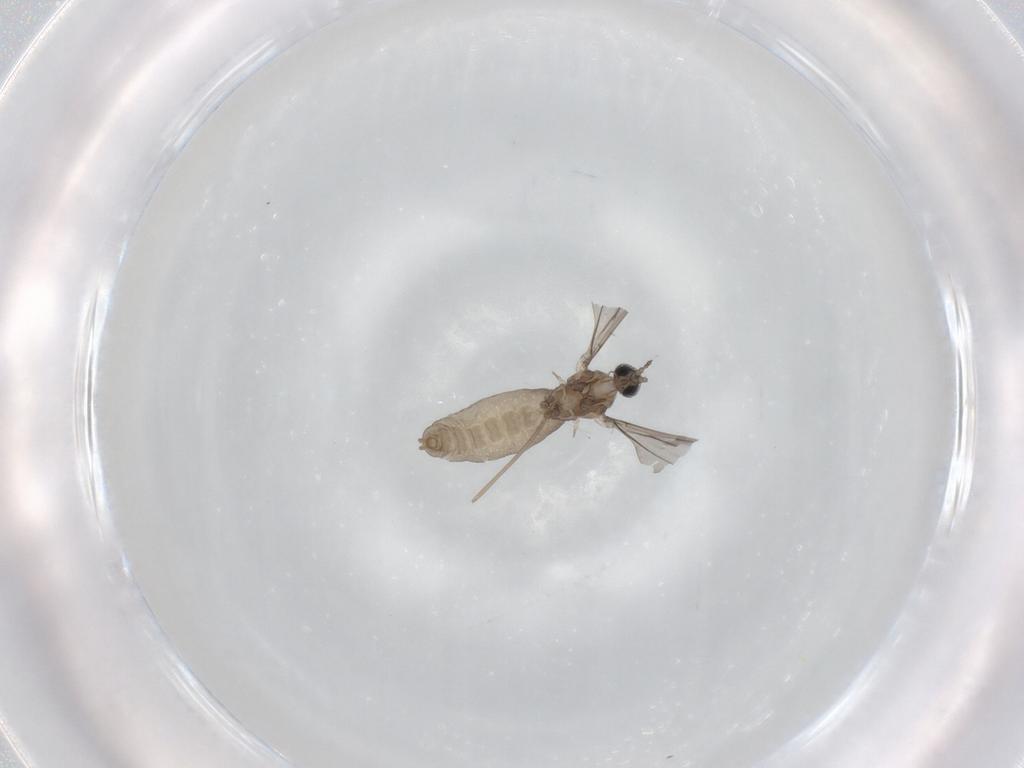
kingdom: Animalia
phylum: Arthropoda
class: Insecta
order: Diptera
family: Cecidomyiidae
